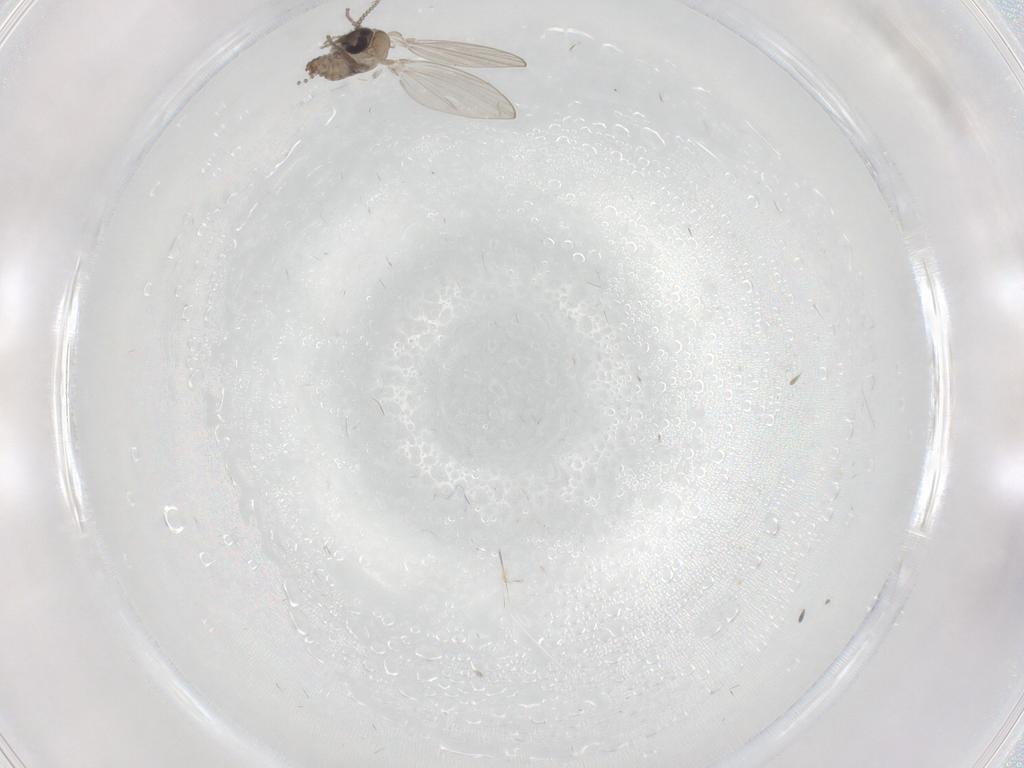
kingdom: Animalia
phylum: Arthropoda
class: Insecta
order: Diptera
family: Psychodidae
